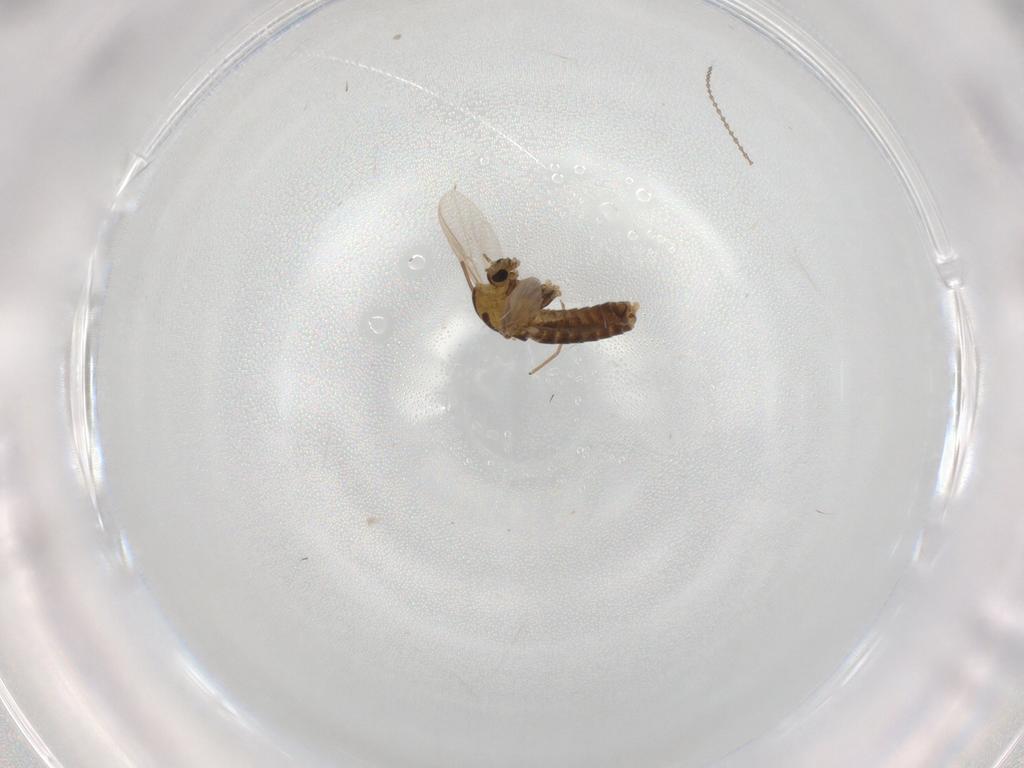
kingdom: Animalia
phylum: Arthropoda
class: Insecta
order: Diptera
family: Chironomidae
